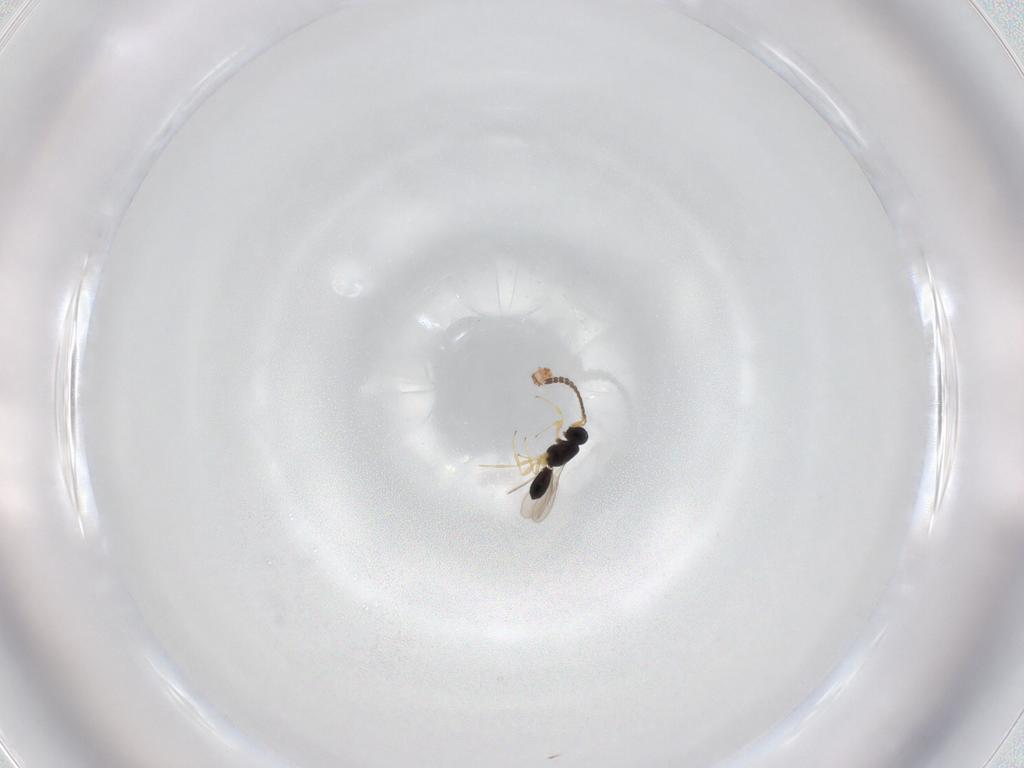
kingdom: Animalia
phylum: Arthropoda
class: Insecta
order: Hymenoptera
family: Scelionidae
